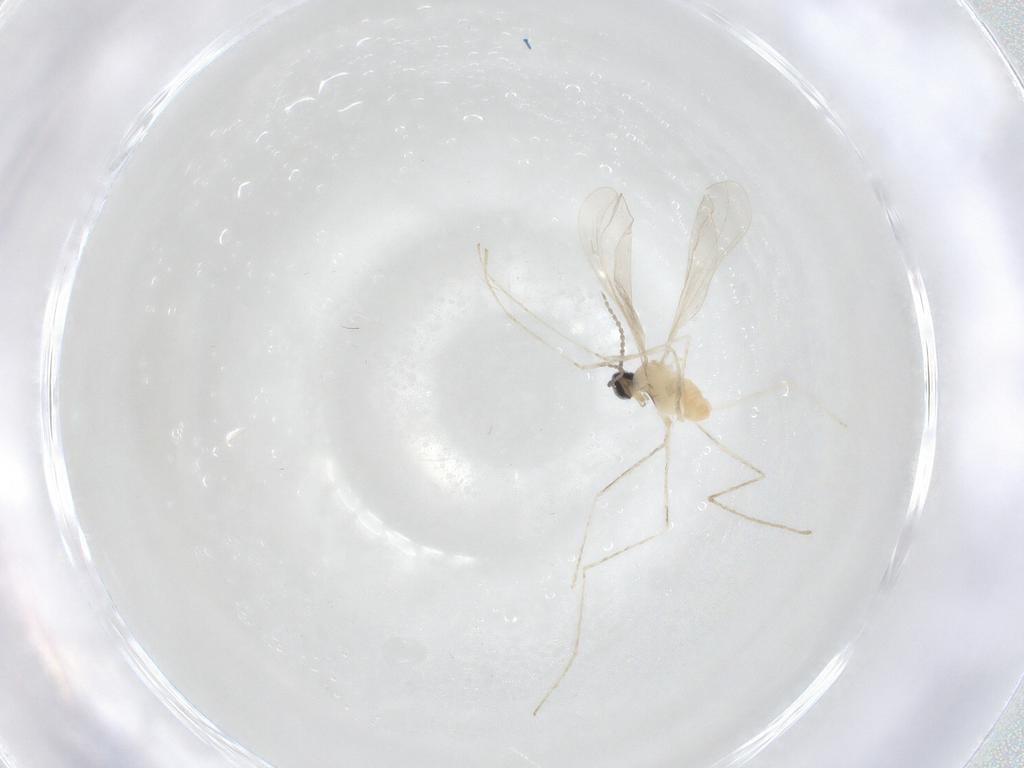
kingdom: Animalia
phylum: Arthropoda
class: Insecta
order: Diptera
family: Cecidomyiidae
